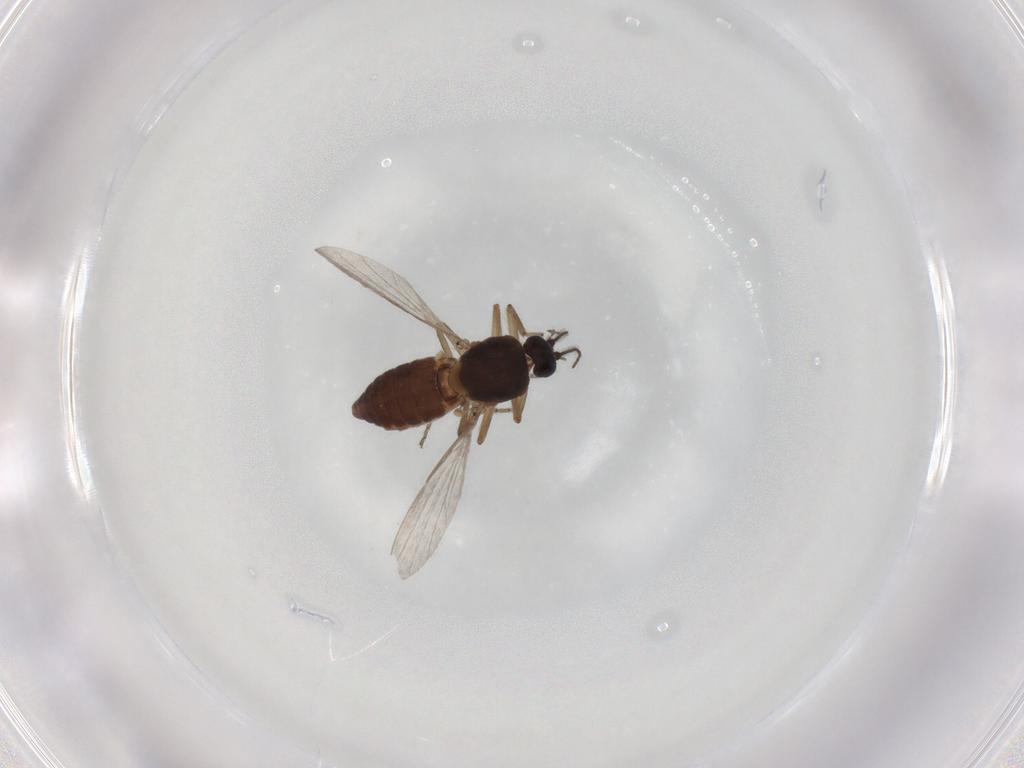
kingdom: Animalia
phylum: Arthropoda
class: Insecta
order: Diptera
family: Ceratopogonidae
